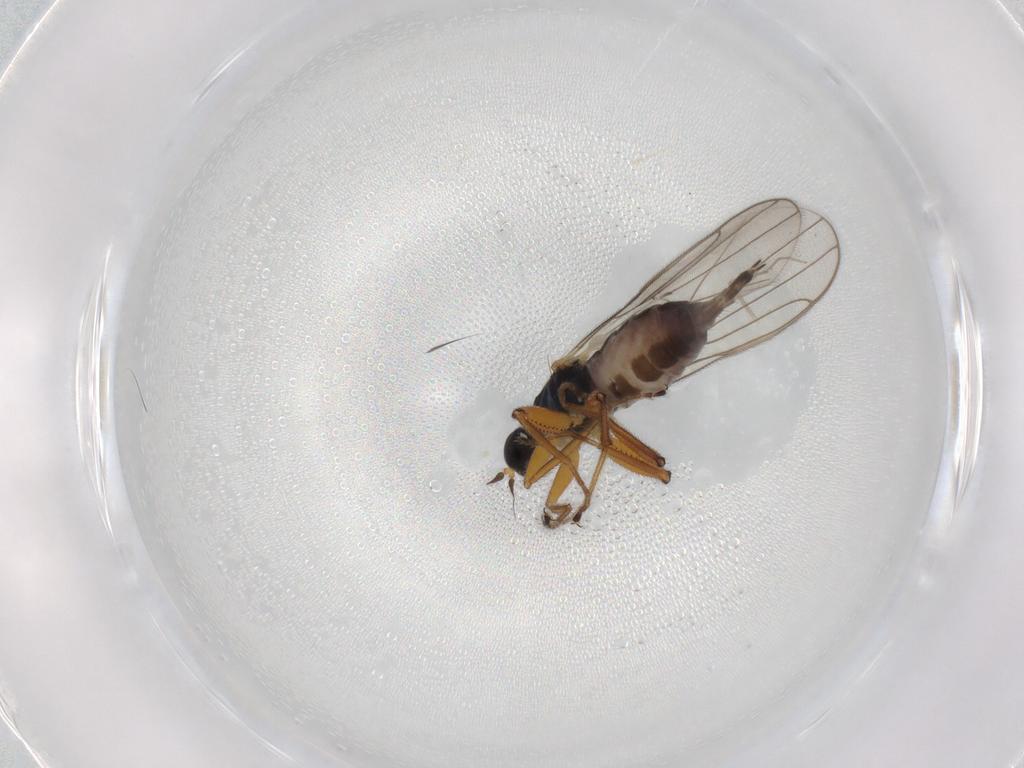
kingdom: Animalia
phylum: Arthropoda
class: Insecta
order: Diptera
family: Hybotidae
